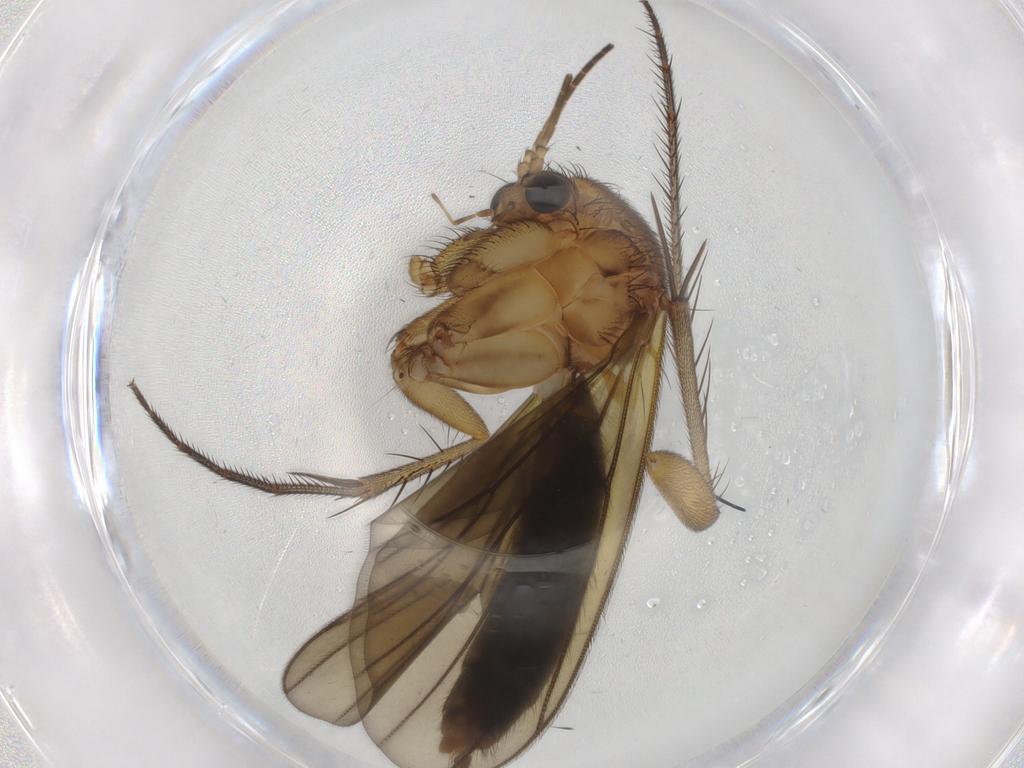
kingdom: Animalia
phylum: Arthropoda
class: Insecta
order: Diptera
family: Mycetophilidae
